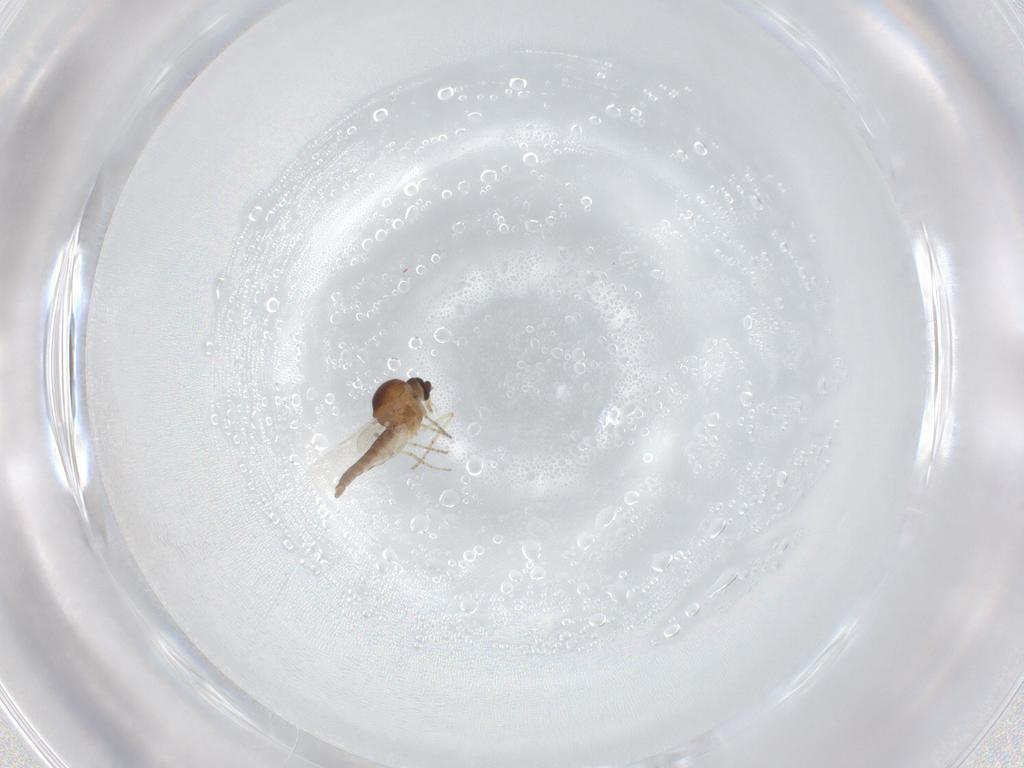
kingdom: Animalia
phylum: Arthropoda
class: Insecta
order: Diptera
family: Ceratopogonidae
